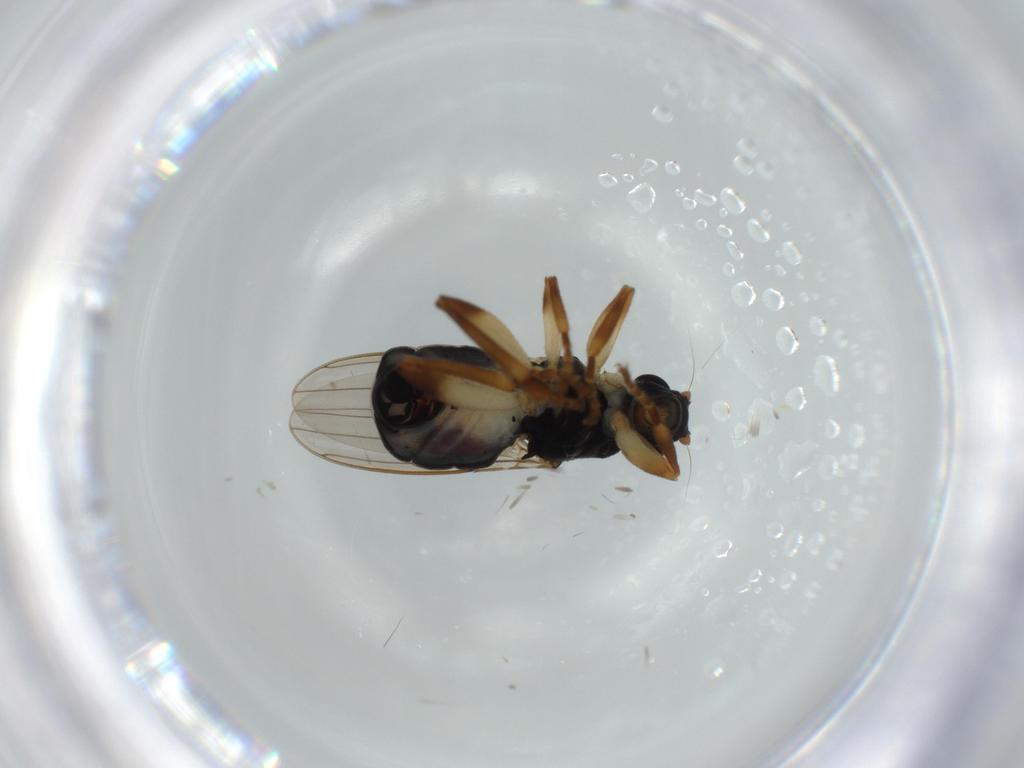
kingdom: Animalia
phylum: Arthropoda
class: Insecta
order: Diptera
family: Sphaeroceridae
